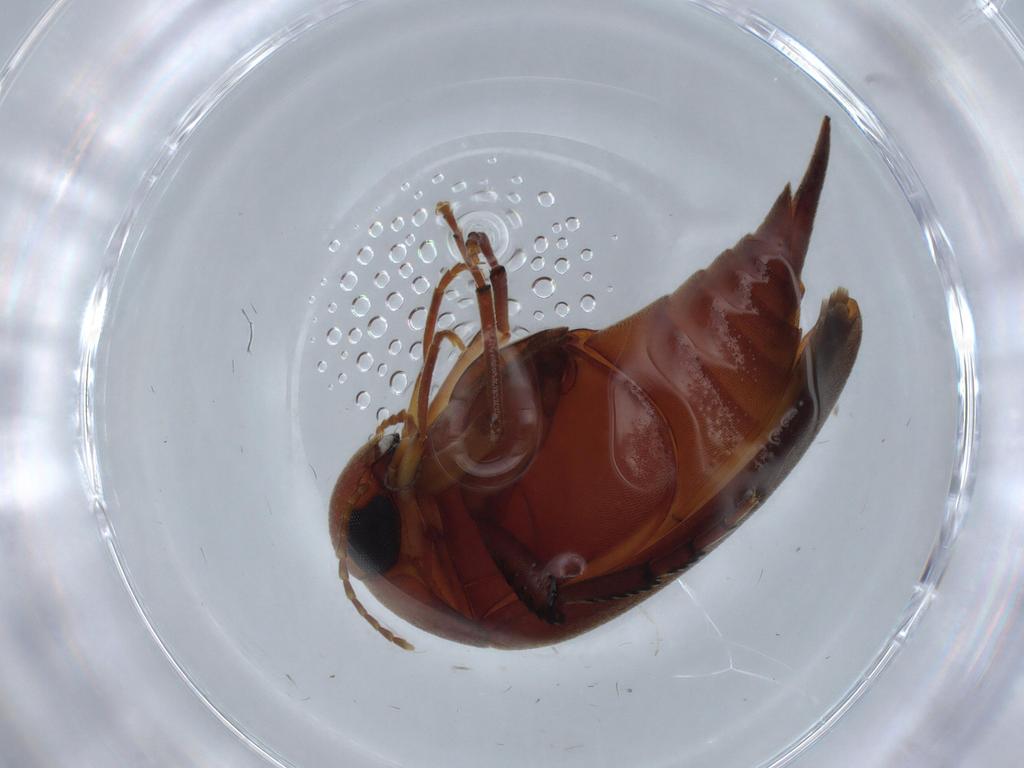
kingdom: Animalia
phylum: Arthropoda
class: Insecta
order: Coleoptera
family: Mordellidae
